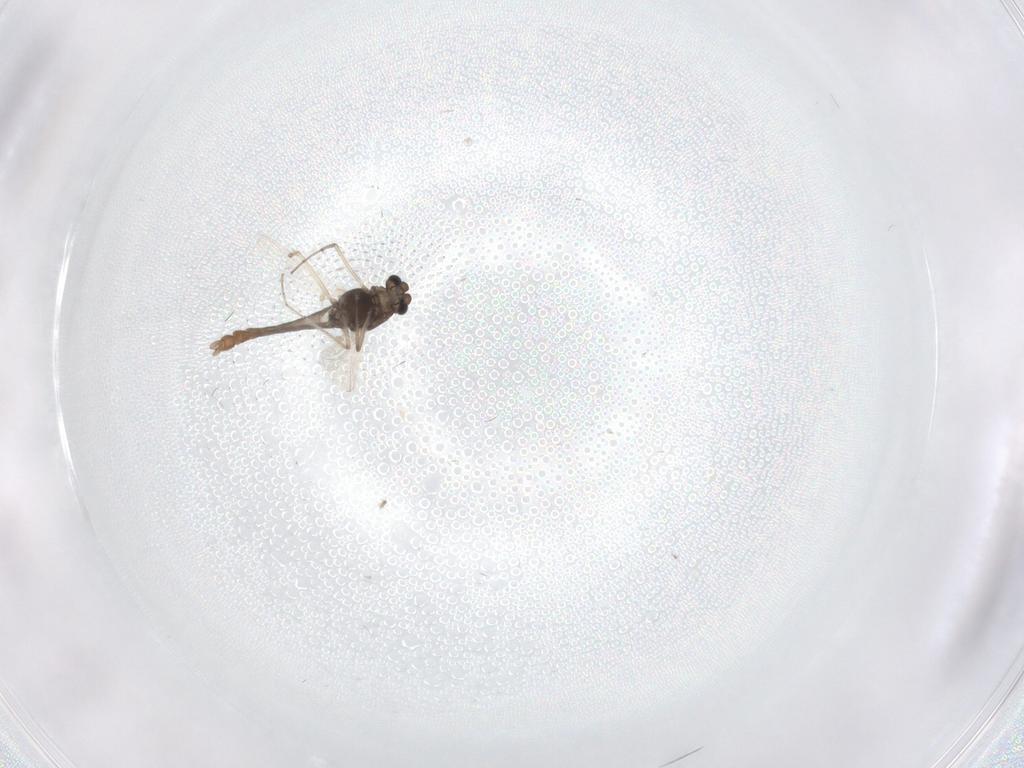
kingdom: Animalia
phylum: Arthropoda
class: Insecta
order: Diptera
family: Chironomidae
